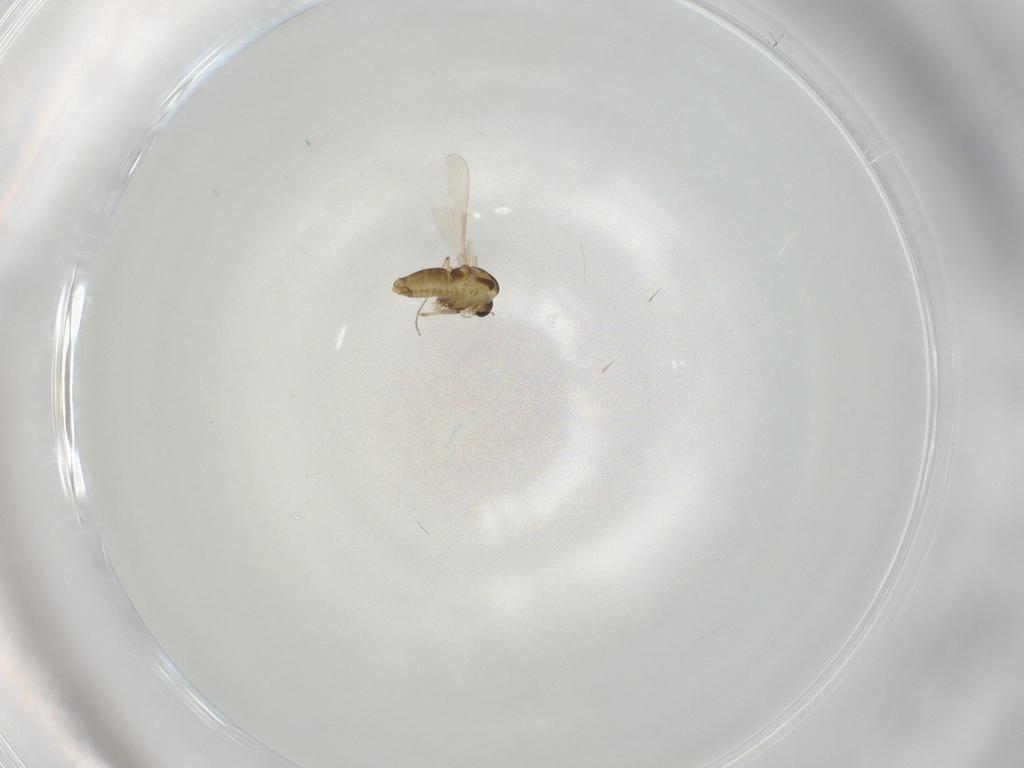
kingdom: Animalia
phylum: Arthropoda
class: Insecta
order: Diptera
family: Chironomidae
